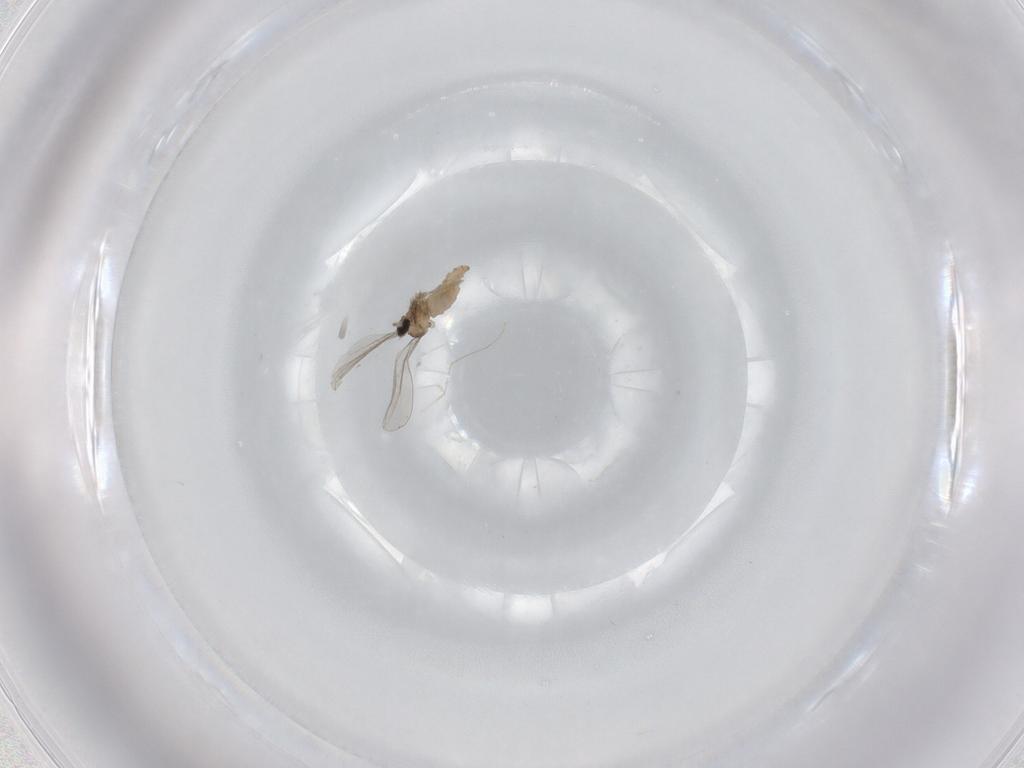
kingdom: Animalia
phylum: Arthropoda
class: Insecta
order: Diptera
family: Cecidomyiidae
